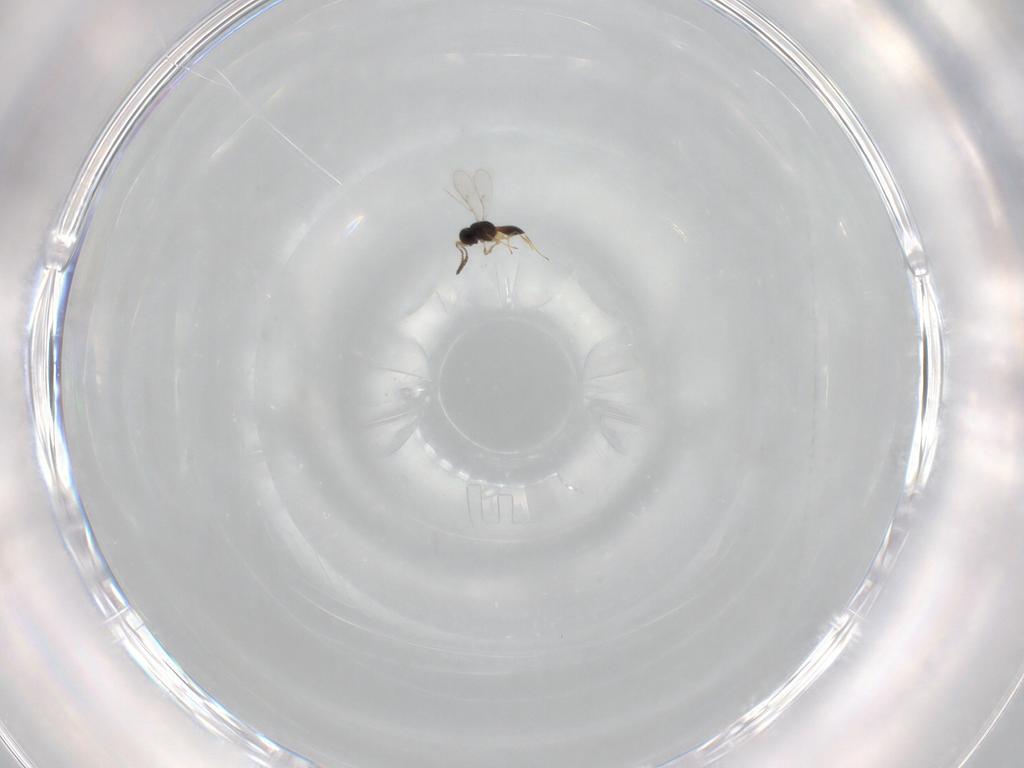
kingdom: Animalia
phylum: Arthropoda
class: Insecta
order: Hymenoptera
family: Scelionidae
